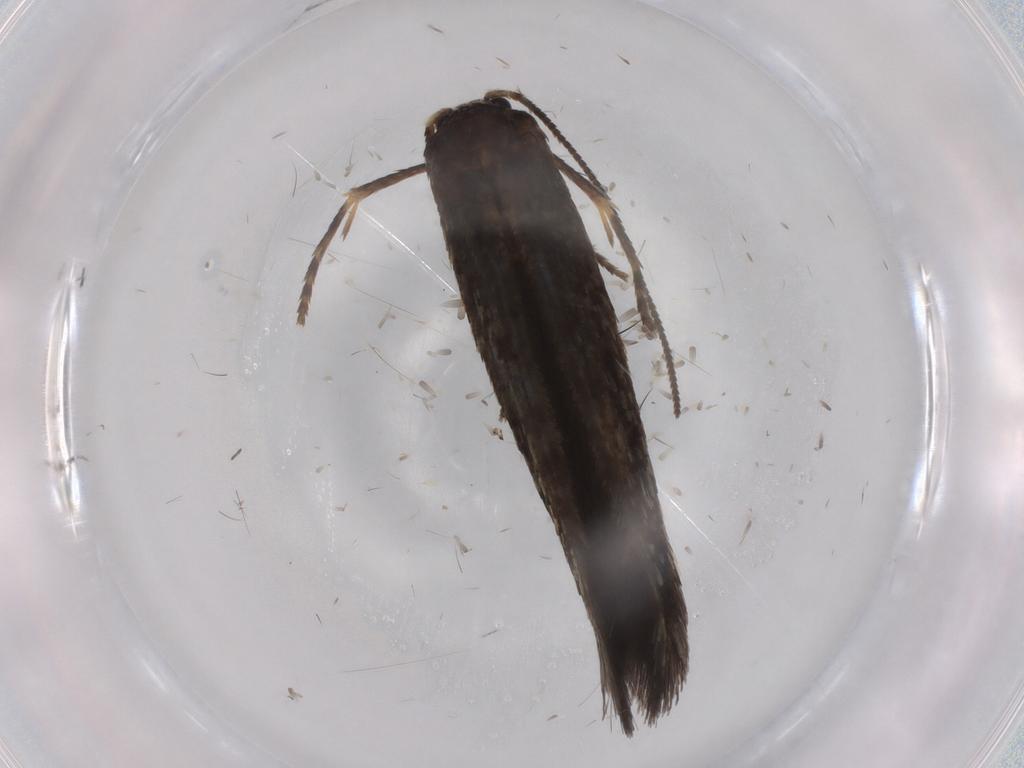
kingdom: Animalia
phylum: Arthropoda
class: Insecta
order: Lepidoptera
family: Nepticulidae
